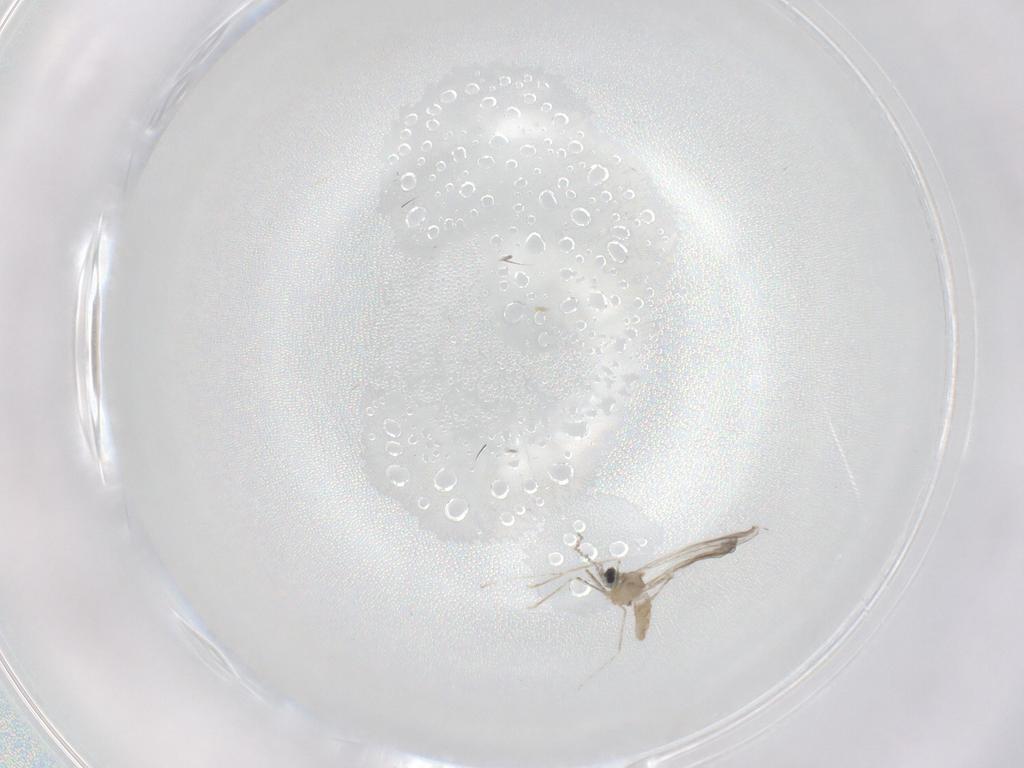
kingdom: Animalia
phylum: Arthropoda
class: Insecta
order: Diptera
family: Cecidomyiidae
